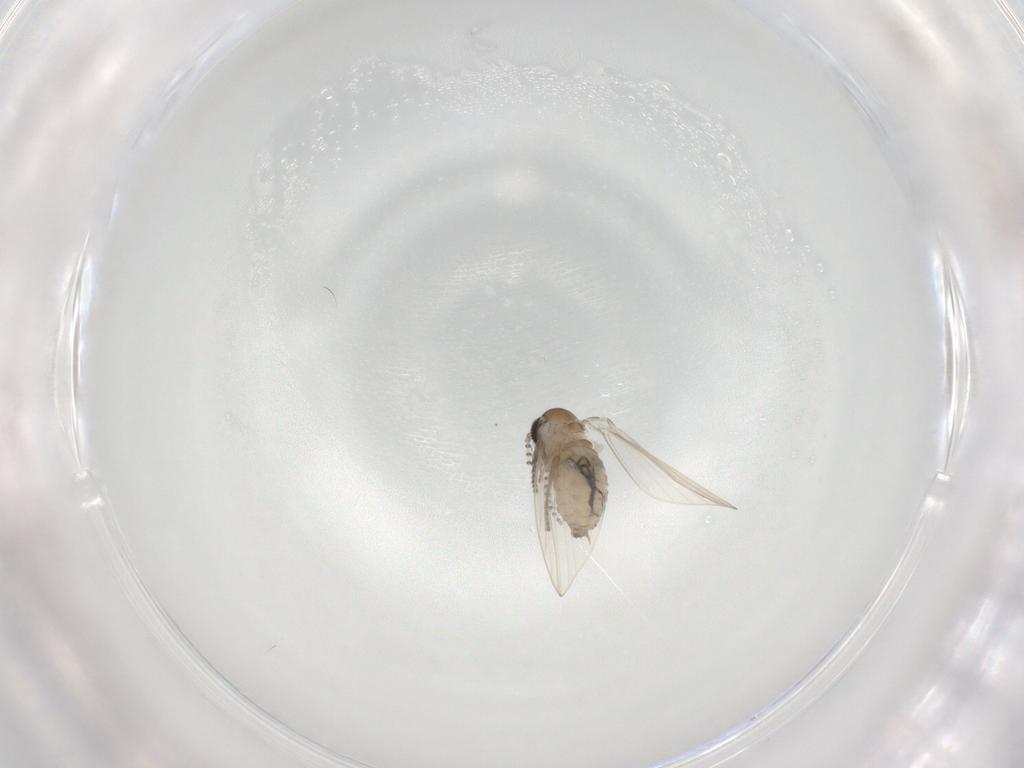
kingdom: Animalia
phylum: Arthropoda
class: Insecta
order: Diptera
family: Psychodidae
